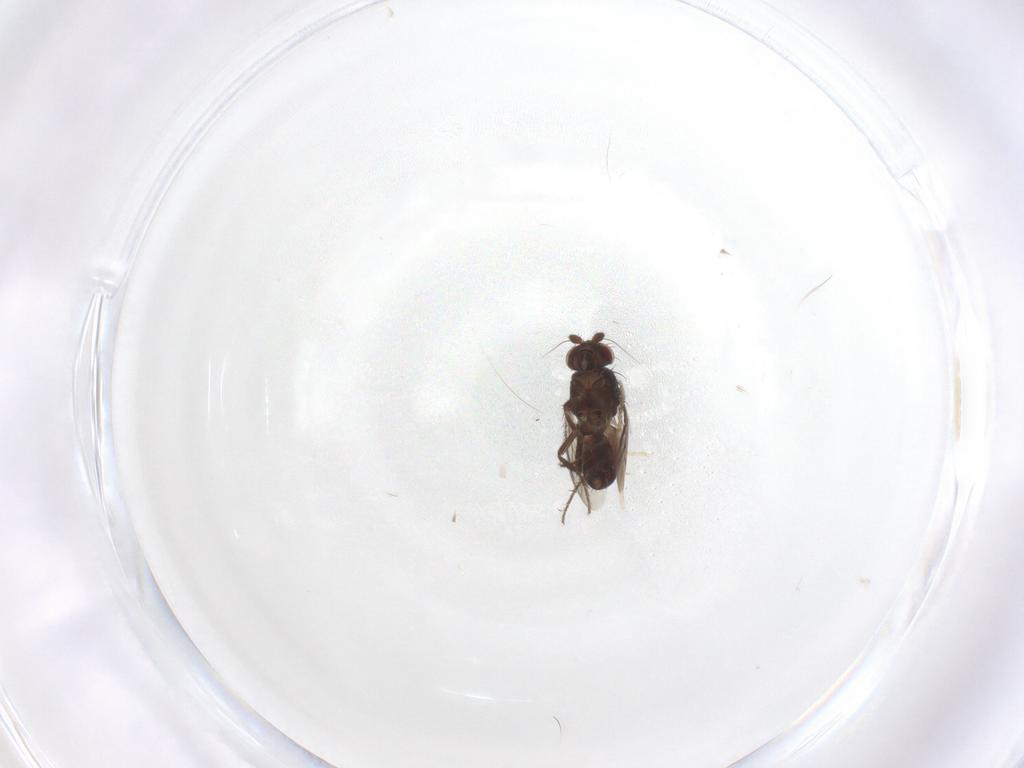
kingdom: Animalia
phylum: Arthropoda
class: Insecta
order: Diptera
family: Sphaeroceridae
